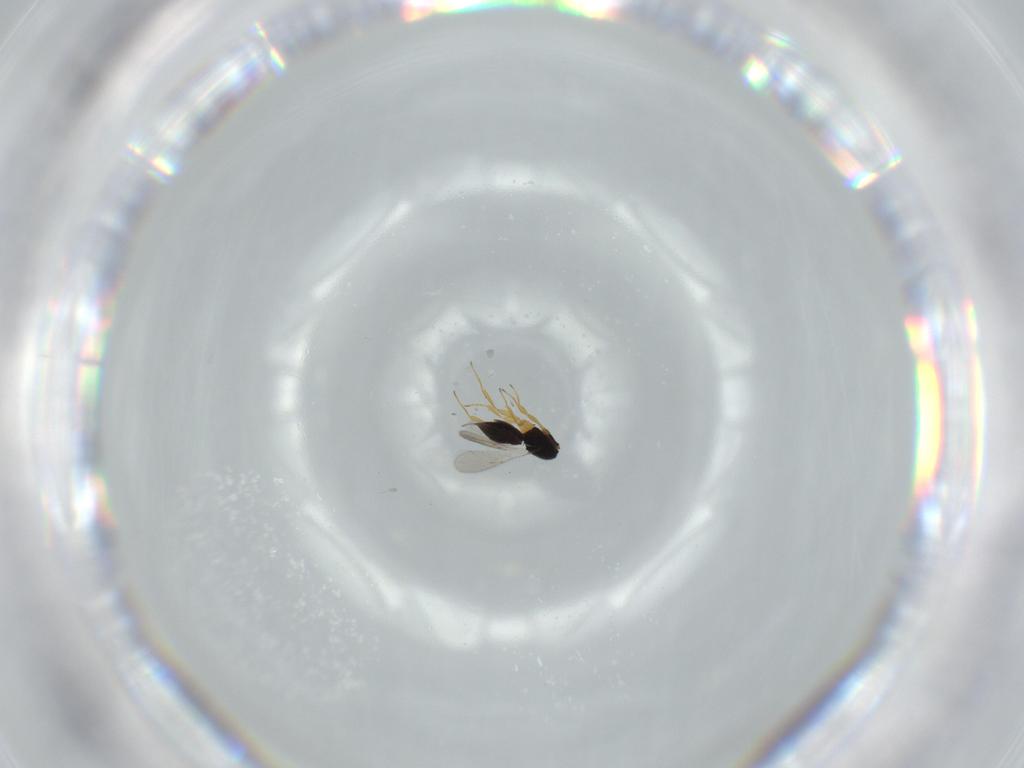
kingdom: Animalia
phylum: Arthropoda
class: Insecta
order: Hymenoptera
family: Scelionidae
